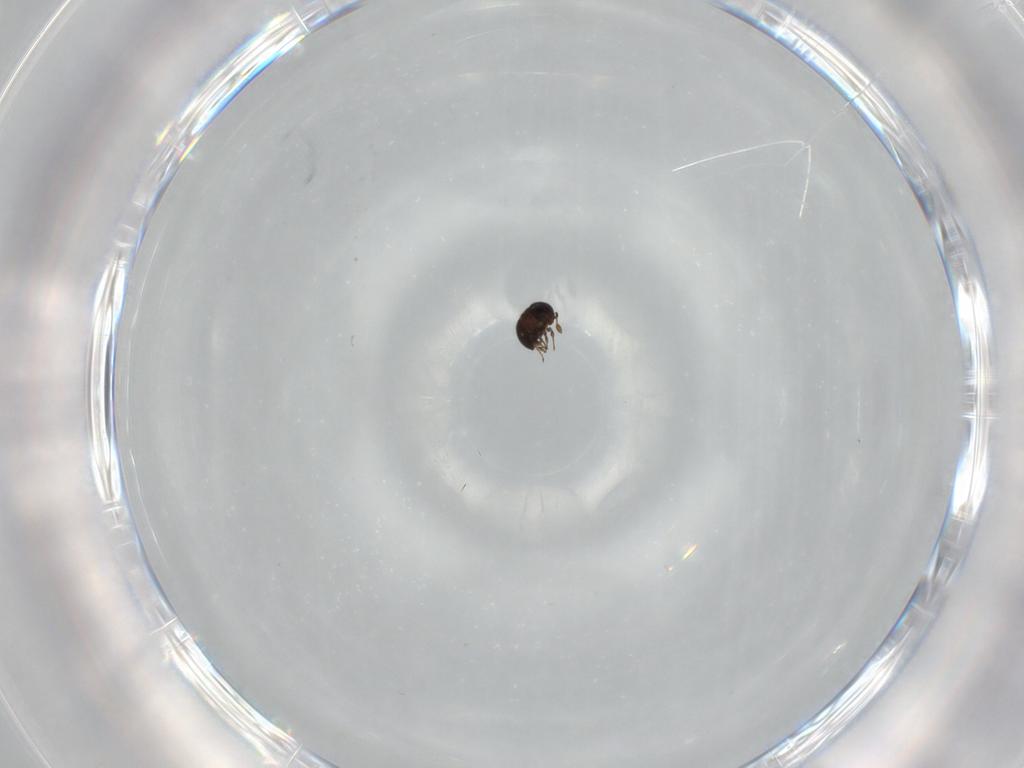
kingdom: Animalia
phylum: Arthropoda
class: Insecta
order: Hymenoptera
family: Scelionidae
